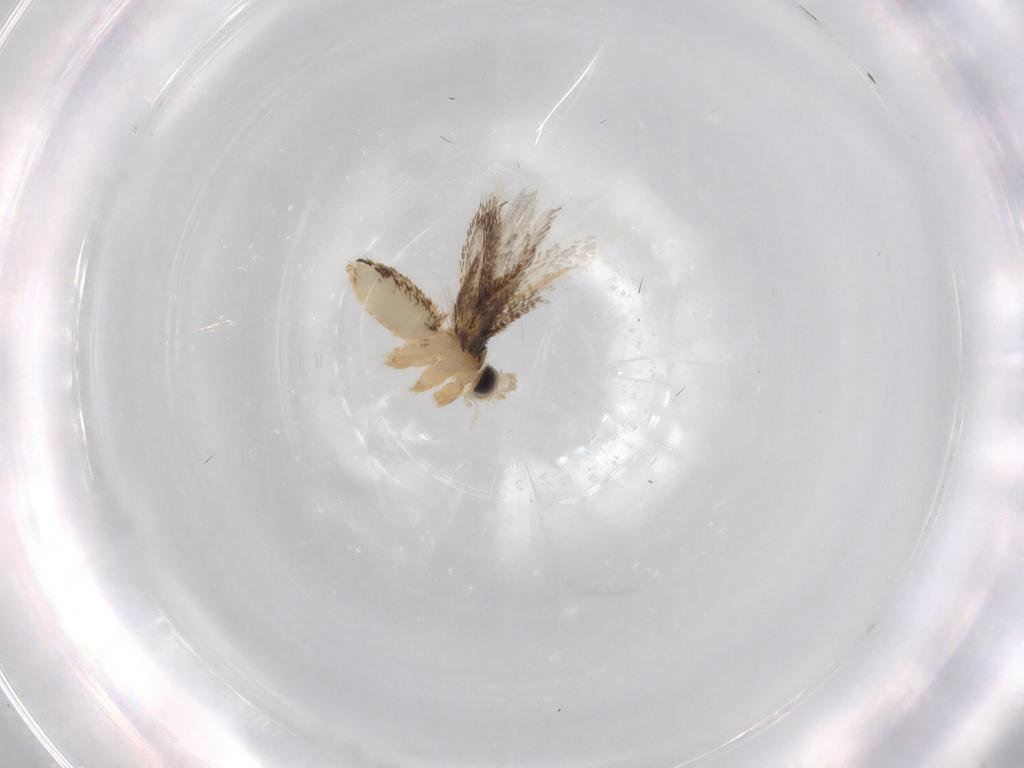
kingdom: Animalia
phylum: Arthropoda
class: Insecta
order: Lepidoptera
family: Nepticulidae
